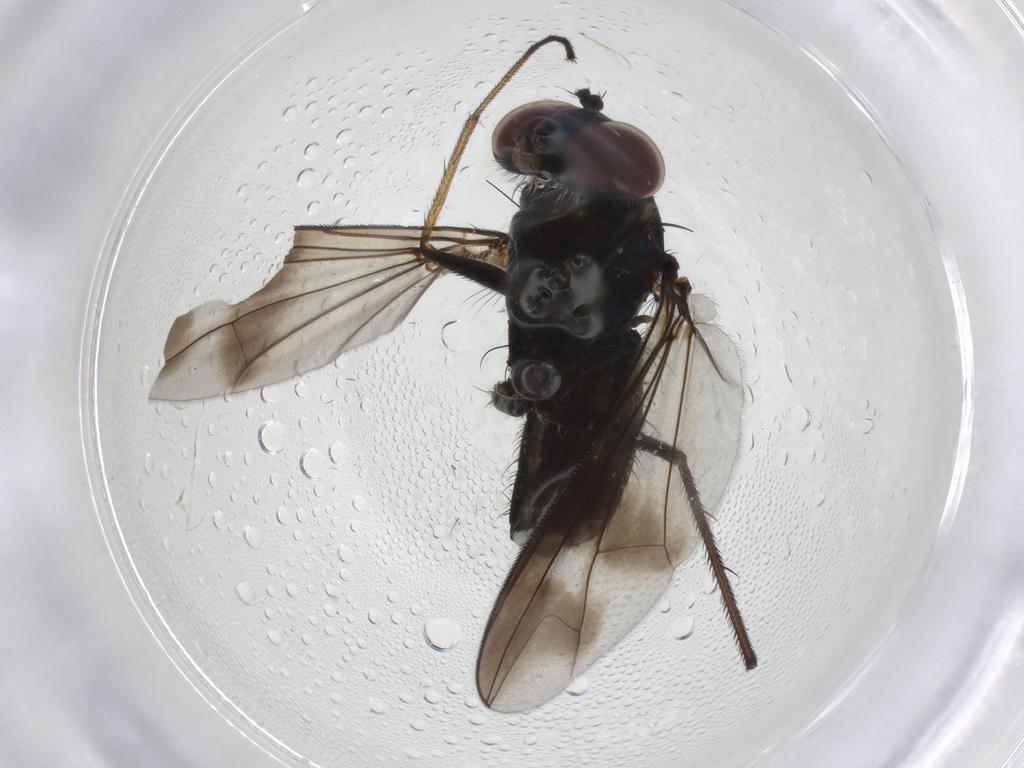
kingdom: Animalia
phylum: Arthropoda
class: Insecta
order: Diptera
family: Dolichopodidae
